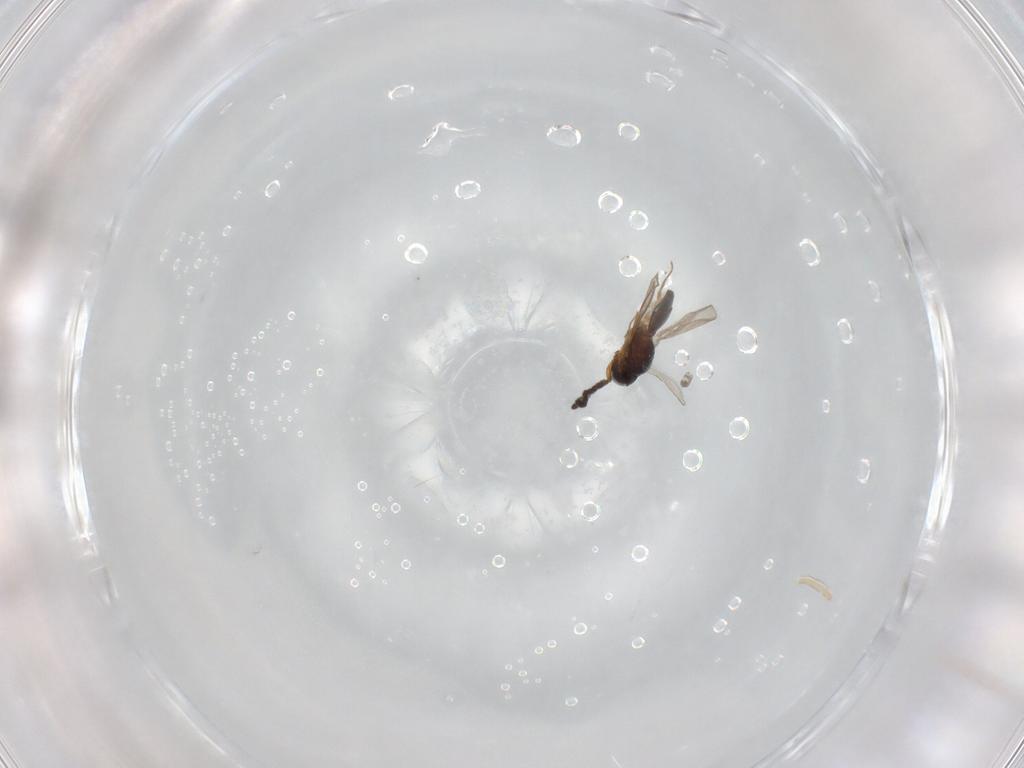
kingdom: Animalia
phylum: Arthropoda
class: Insecta
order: Hymenoptera
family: Scelionidae
